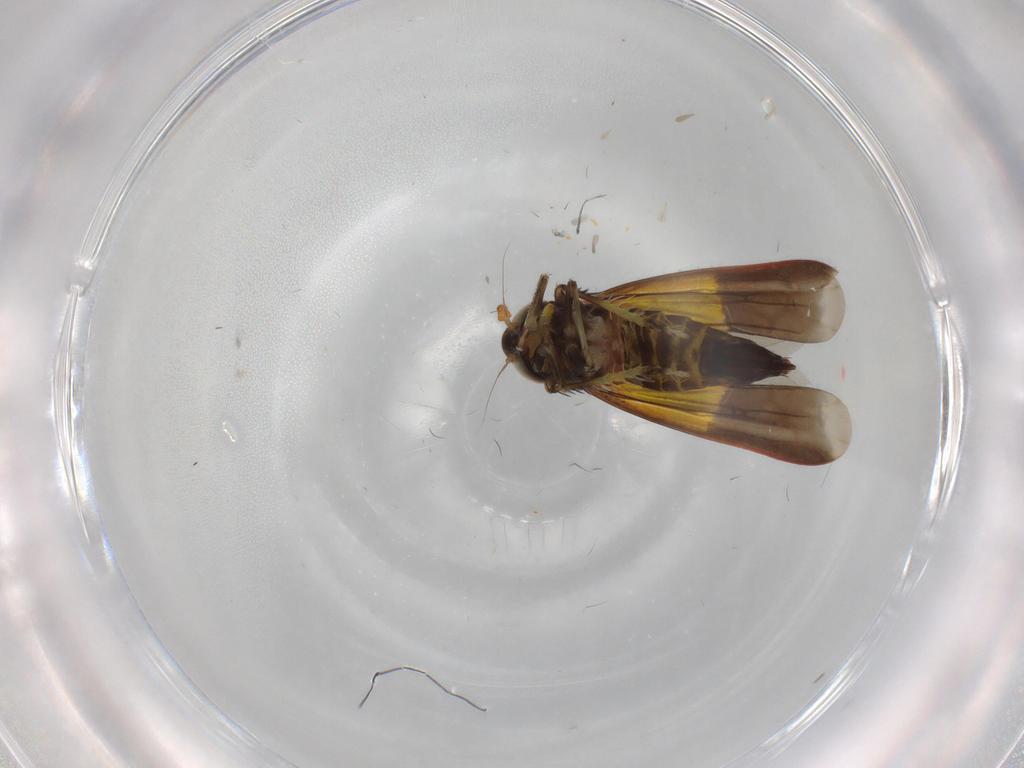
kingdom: Animalia
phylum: Arthropoda
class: Insecta
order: Hemiptera
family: Cicadellidae
